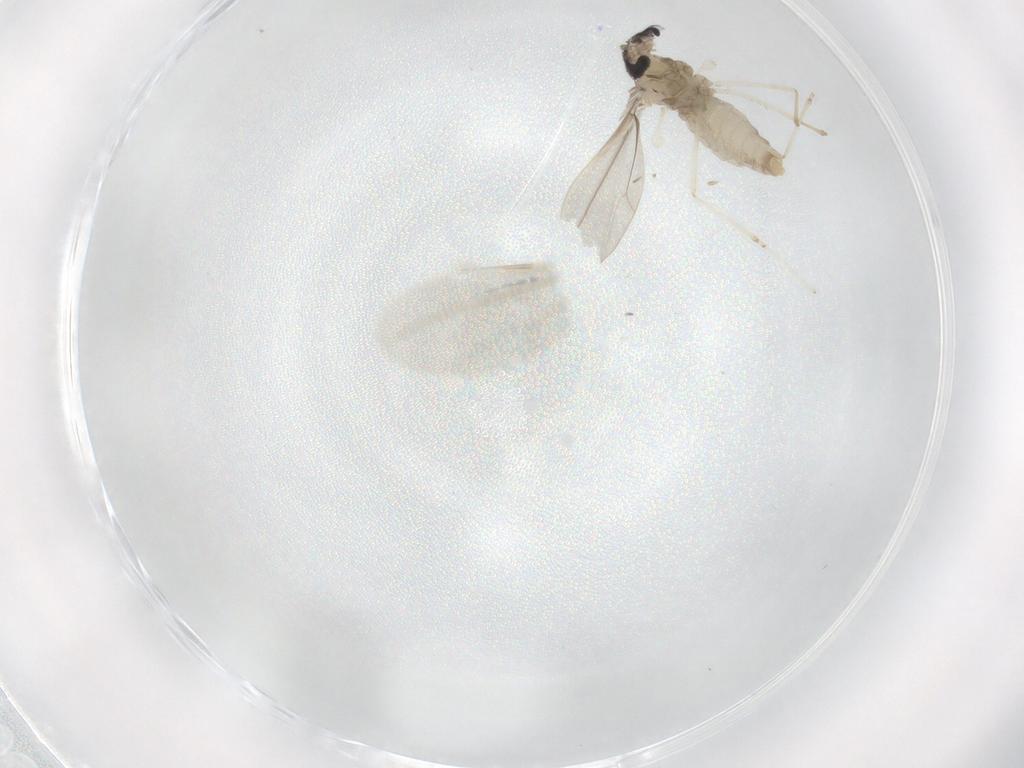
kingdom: Animalia
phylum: Arthropoda
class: Insecta
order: Diptera
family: Cecidomyiidae
